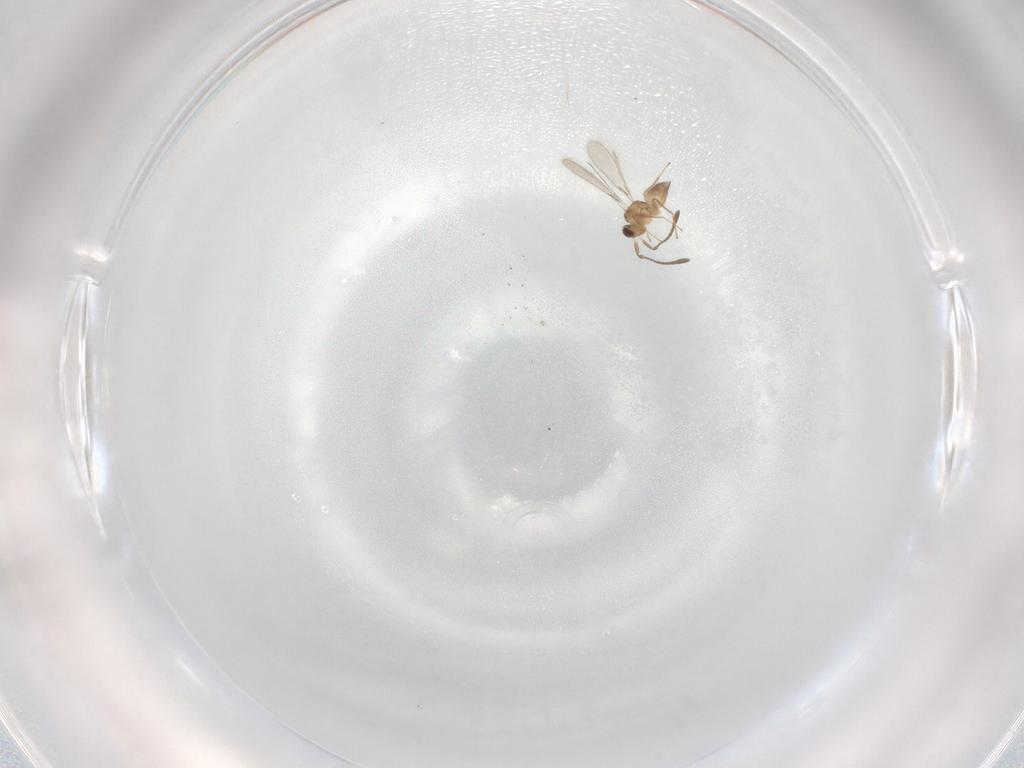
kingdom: Animalia
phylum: Arthropoda
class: Insecta
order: Hymenoptera
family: Mymaridae
